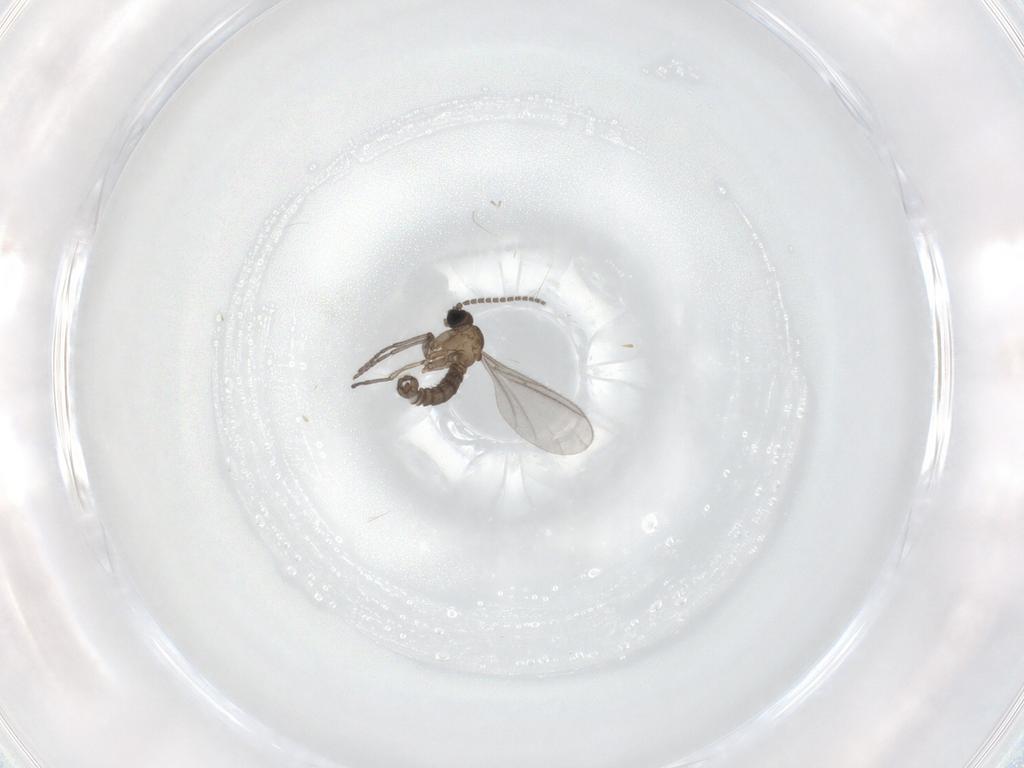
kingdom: Animalia
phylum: Arthropoda
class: Insecta
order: Diptera
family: Sciaridae
